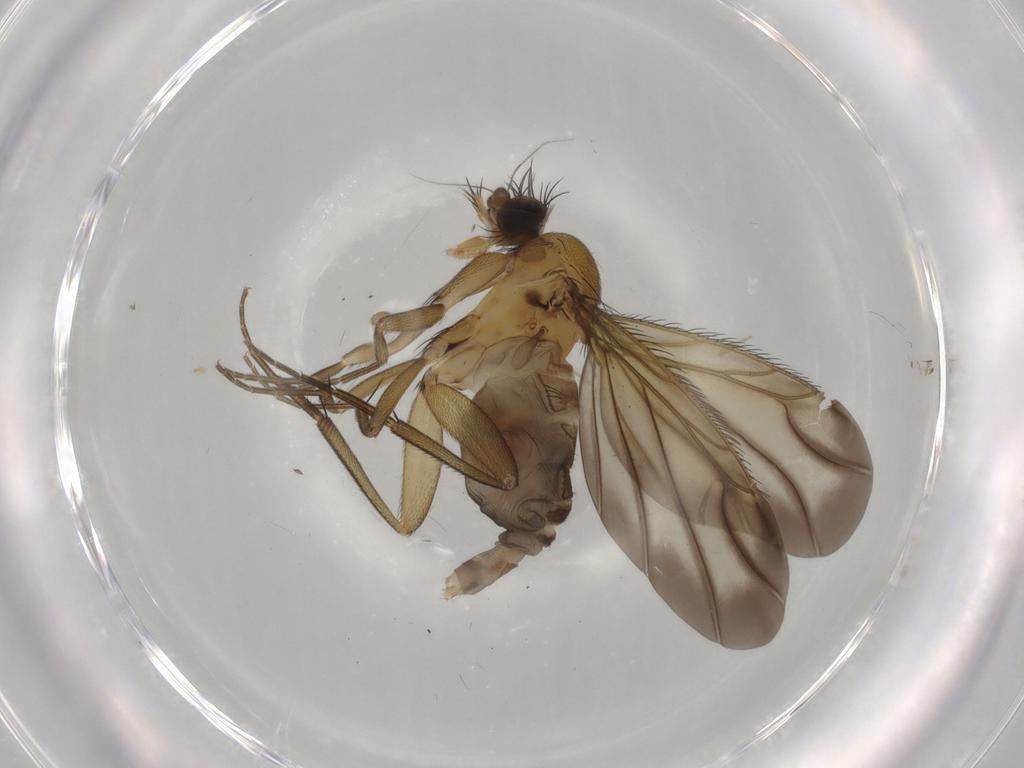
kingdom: Animalia
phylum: Arthropoda
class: Insecta
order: Diptera
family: Phoridae
